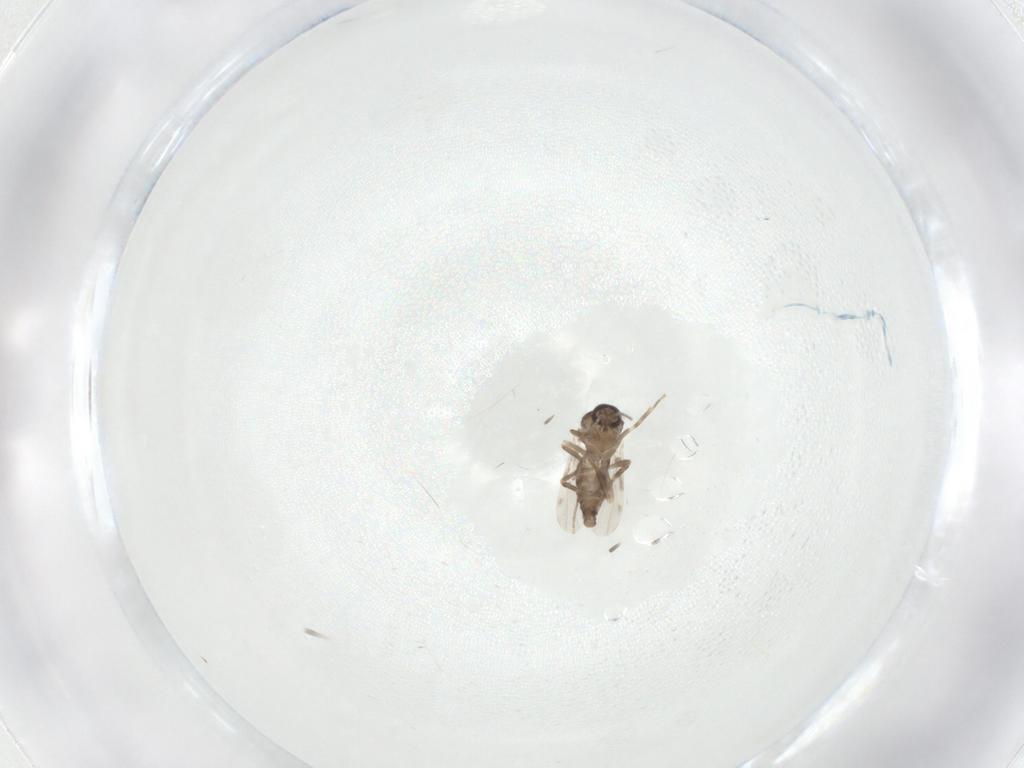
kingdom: Animalia
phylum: Arthropoda
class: Insecta
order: Diptera
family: Ceratopogonidae
